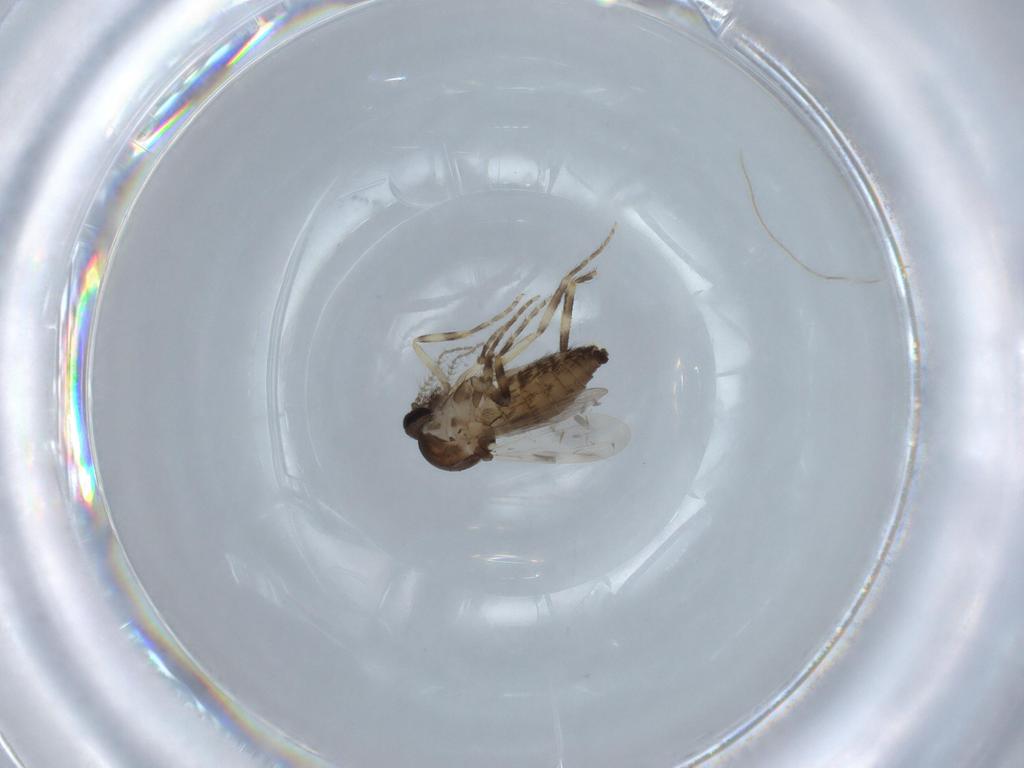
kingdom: Animalia
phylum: Arthropoda
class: Insecta
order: Diptera
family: Ceratopogonidae
